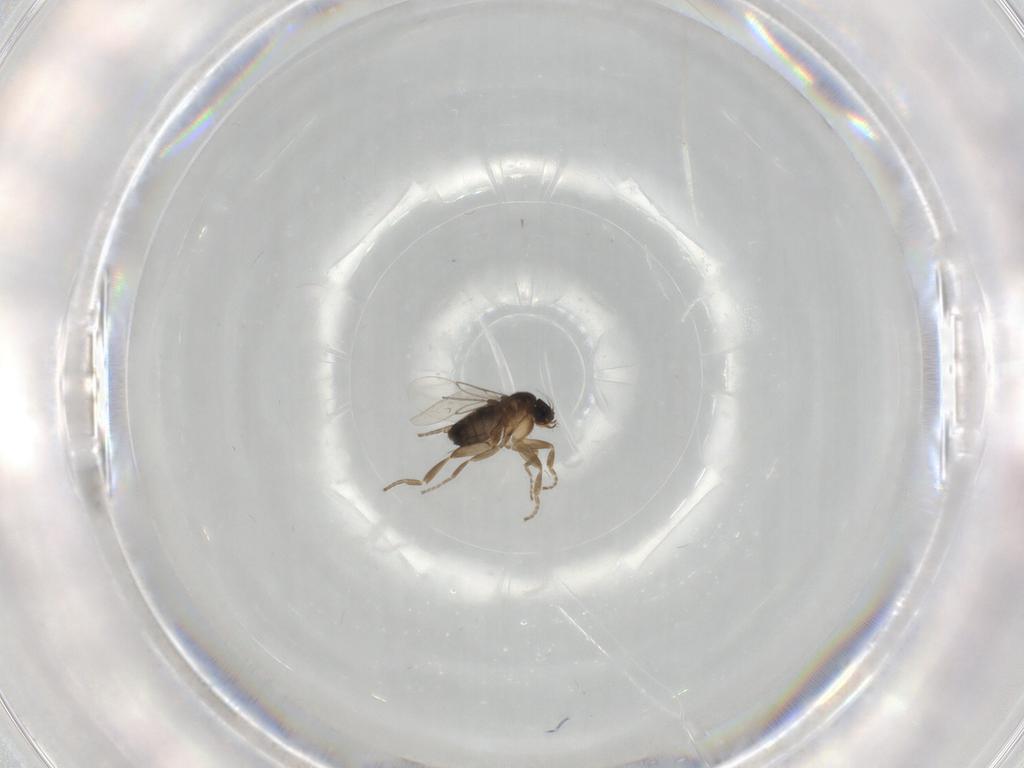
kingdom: Animalia
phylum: Arthropoda
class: Insecta
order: Diptera
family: Phoridae
